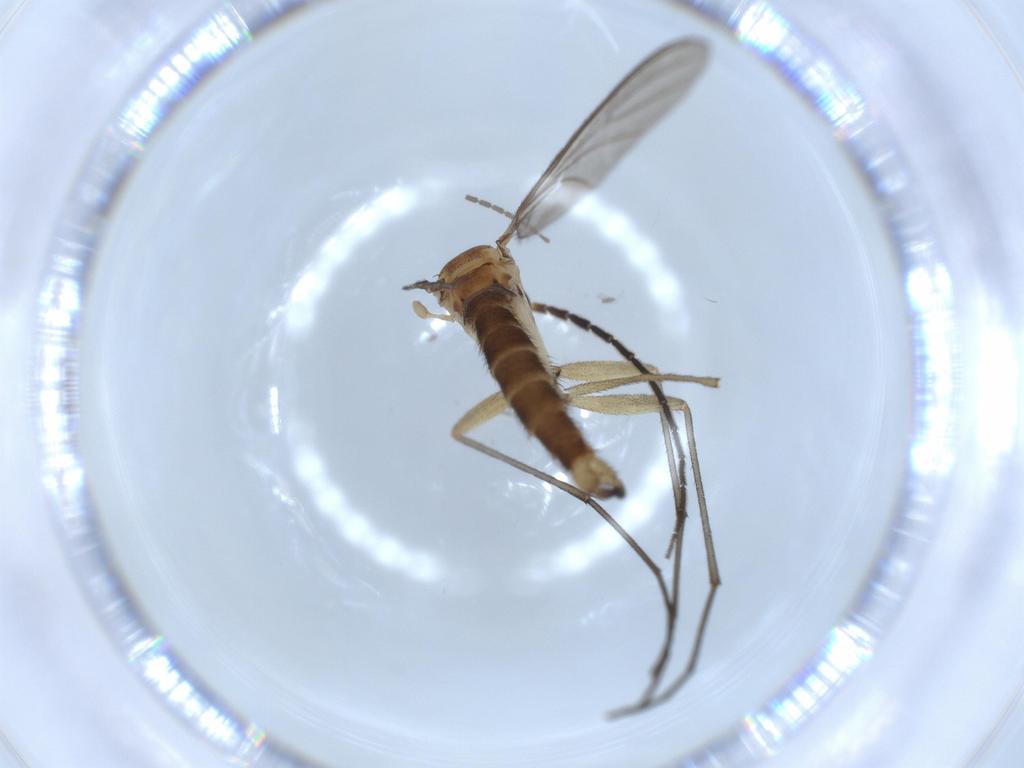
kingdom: Animalia
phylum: Arthropoda
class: Insecta
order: Diptera
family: Sciaridae
